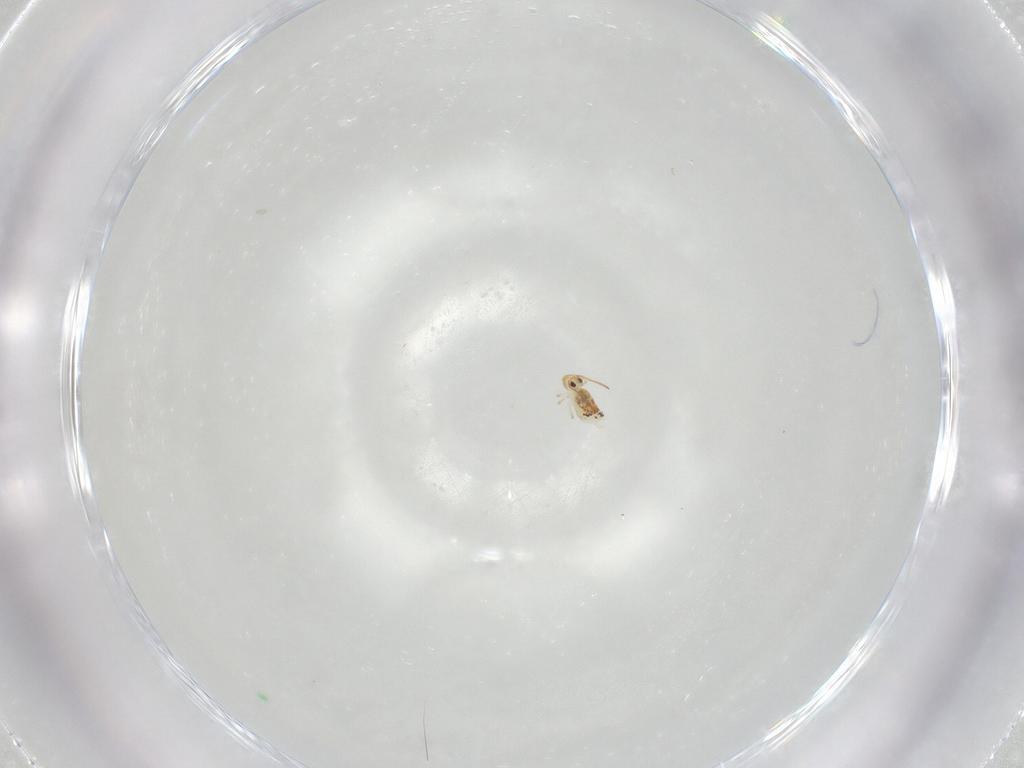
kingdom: Animalia
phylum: Arthropoda
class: Collembola
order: Symphypleona
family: Bourletiellidae
